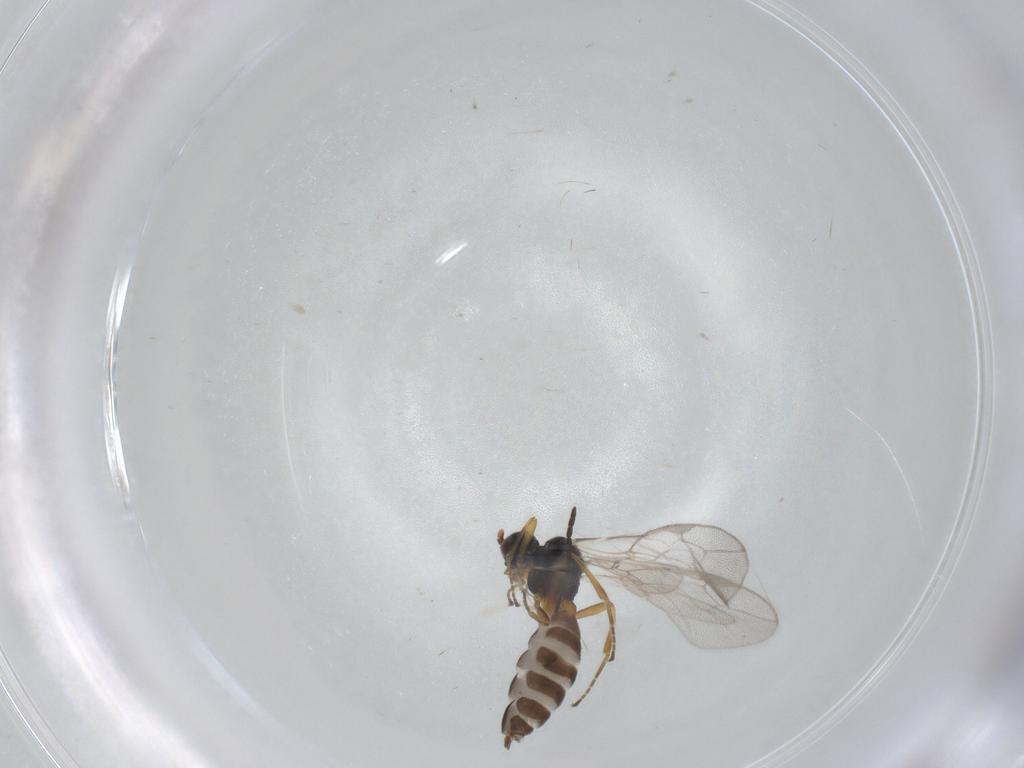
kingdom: Animalia
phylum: Arthropoda
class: Insecta
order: Hymenoptera
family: Braconidae
